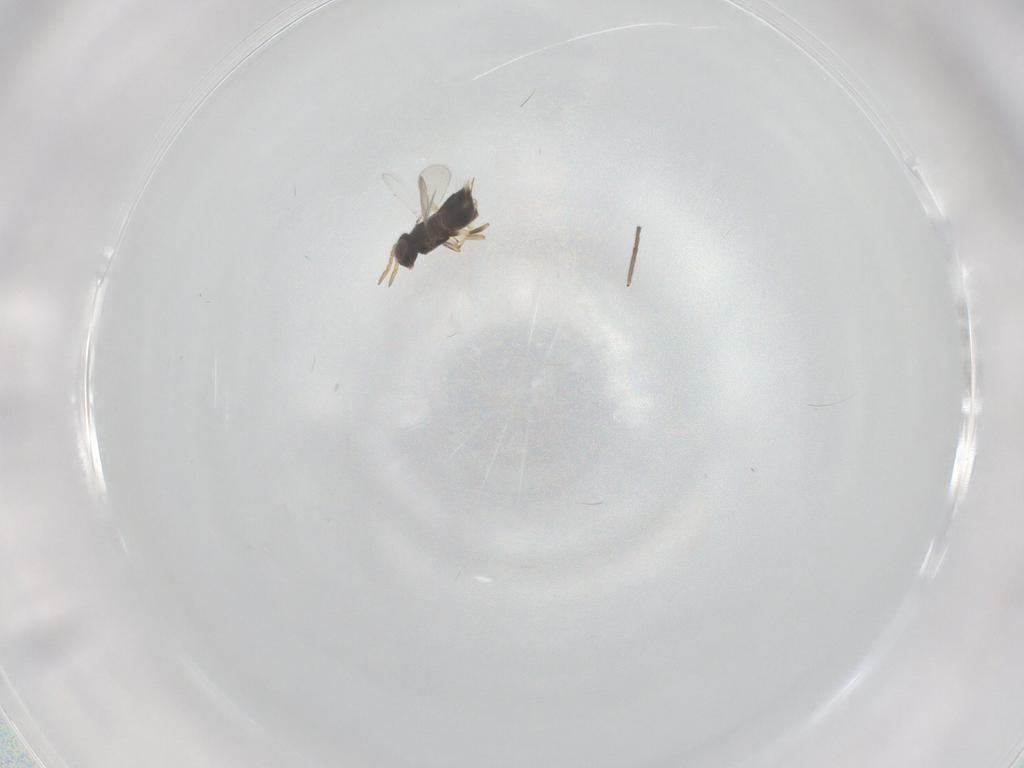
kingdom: Animalia
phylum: Arthropoda
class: Insecta
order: Hymenoptera
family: Aphelinidae
